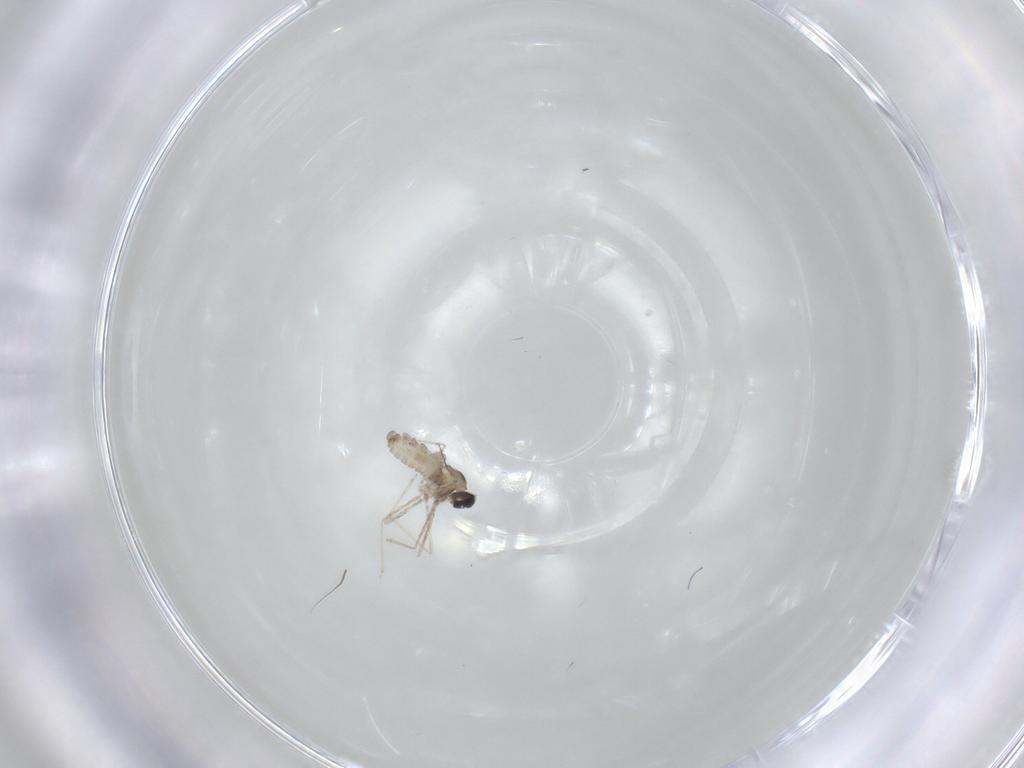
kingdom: Animalia
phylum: Arthropoda
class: Insecta
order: Diptera
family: Cecidomyiidae
